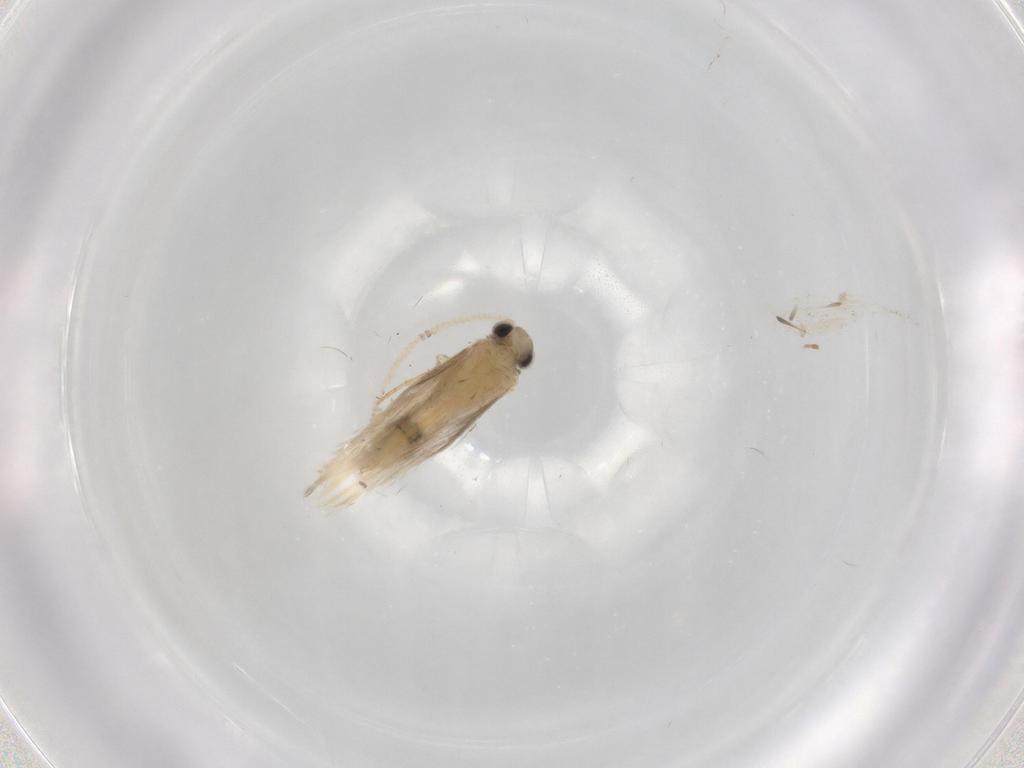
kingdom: Animalia
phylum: Arthropoda
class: Insecta
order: Trichoptera
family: Hydroptilidae
